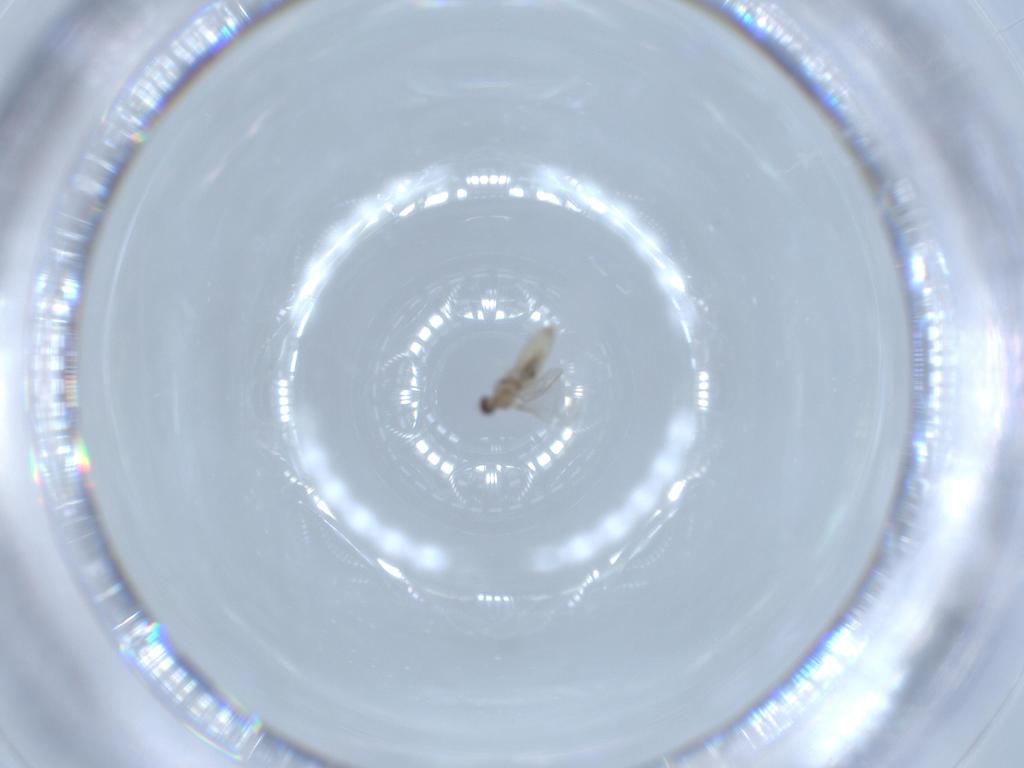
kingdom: Animalia
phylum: Arthropoda
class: Insecta
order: Diptera
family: Cecidomyiidae
